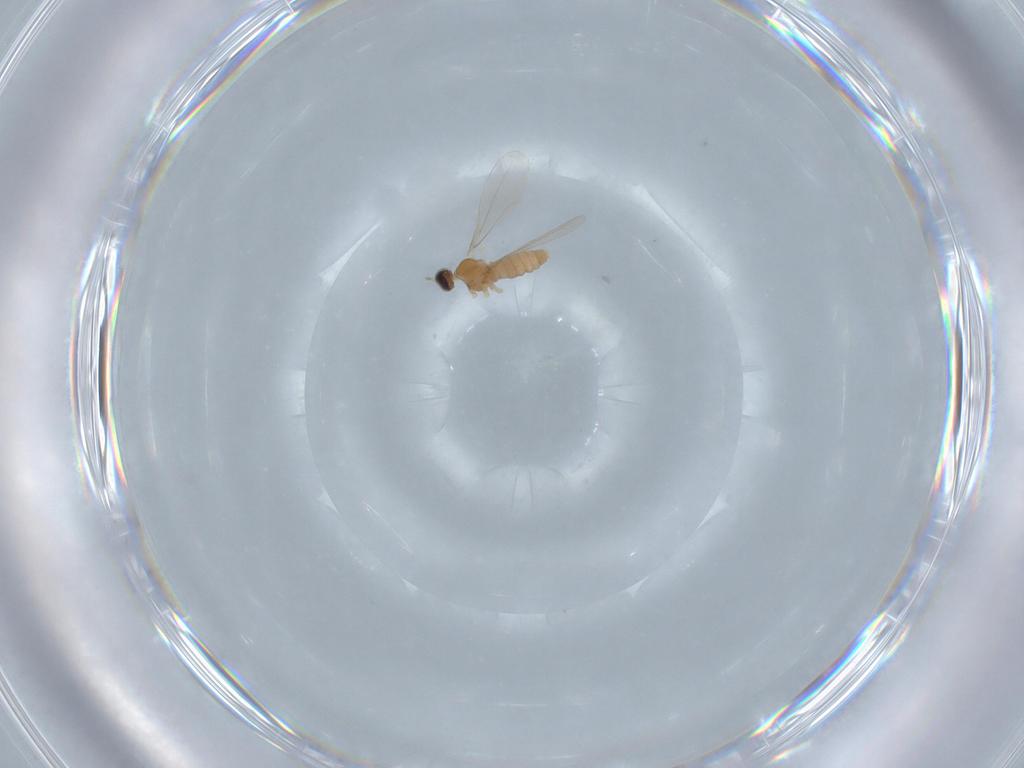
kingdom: Animalia
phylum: Arthropoda
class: Insecta
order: Diptera
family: Cecidomyiidae
